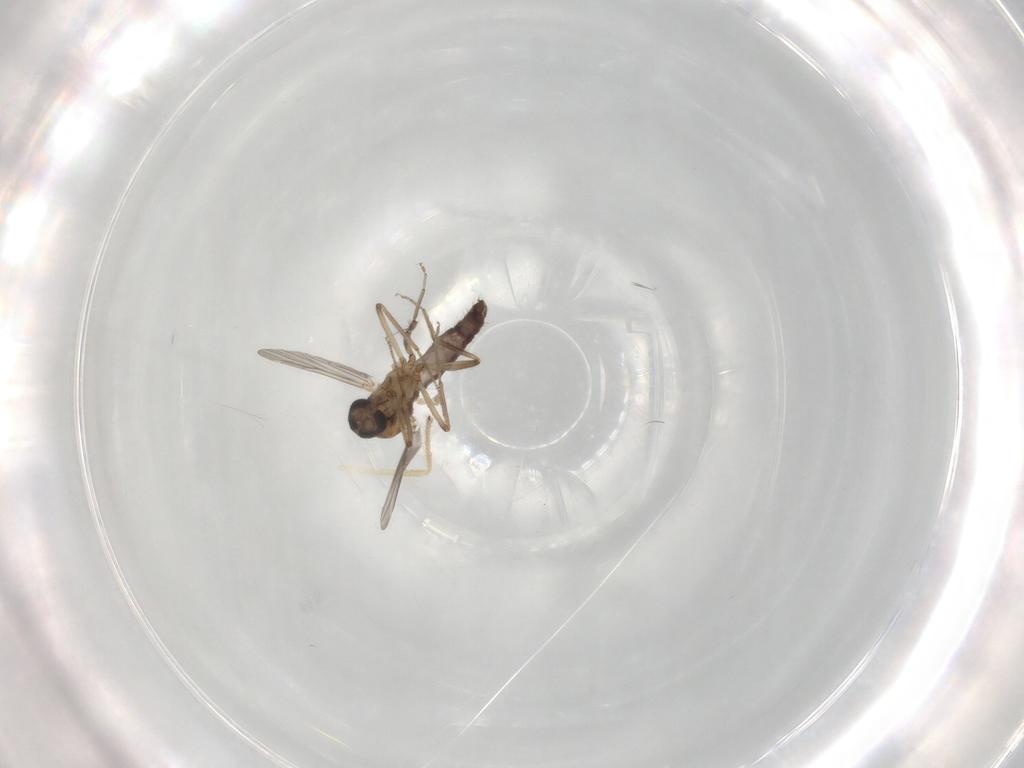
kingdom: Animalia
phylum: Arthropoda
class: Insecta
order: Diptera
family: Ceratopogonidae
